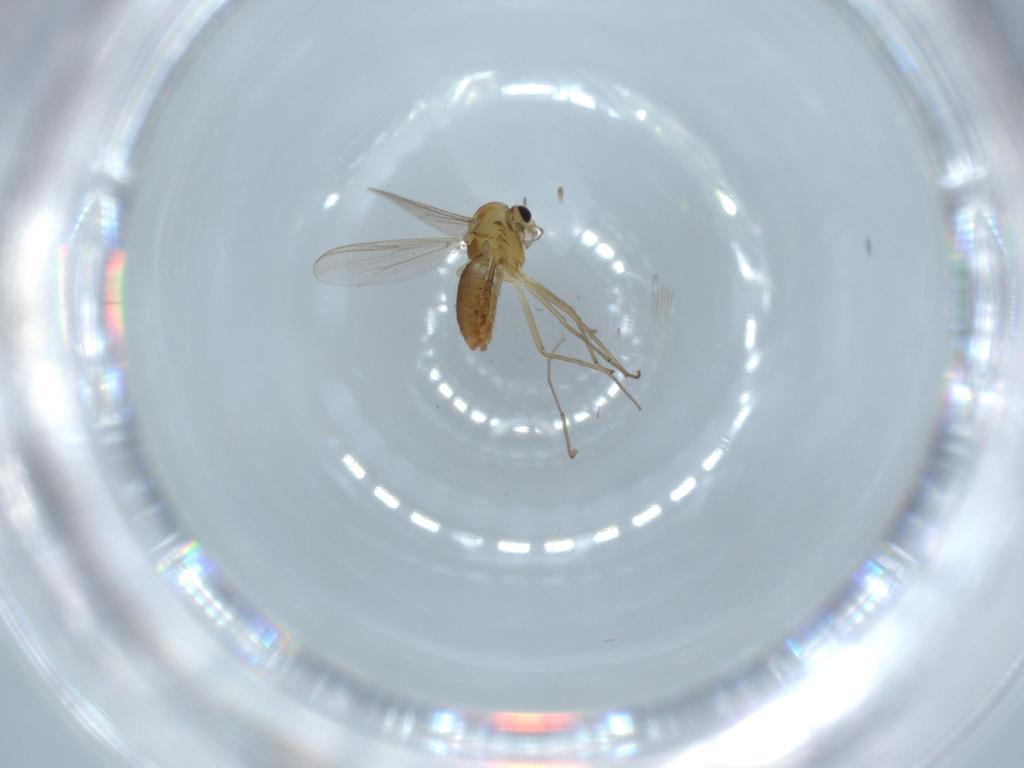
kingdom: Animalia
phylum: Arthropoda
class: Insecta
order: Diptera
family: Chironomidae
